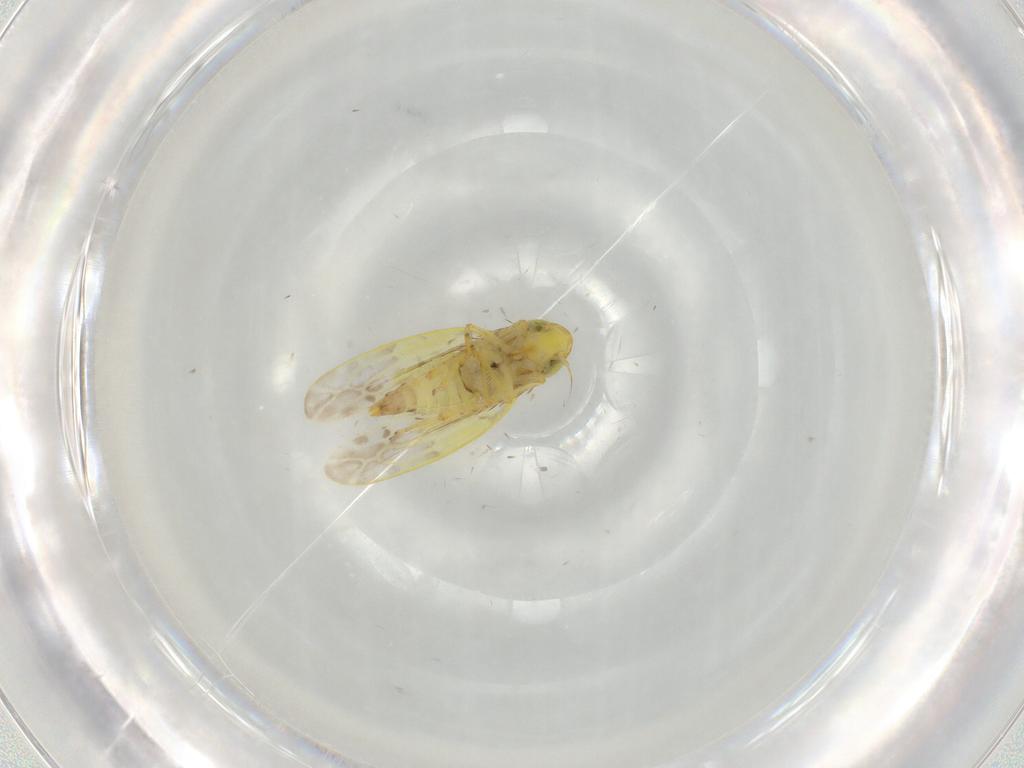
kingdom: Animalia
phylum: Arthropoda
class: Insecta
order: Hemiptera
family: Cicadellidae
